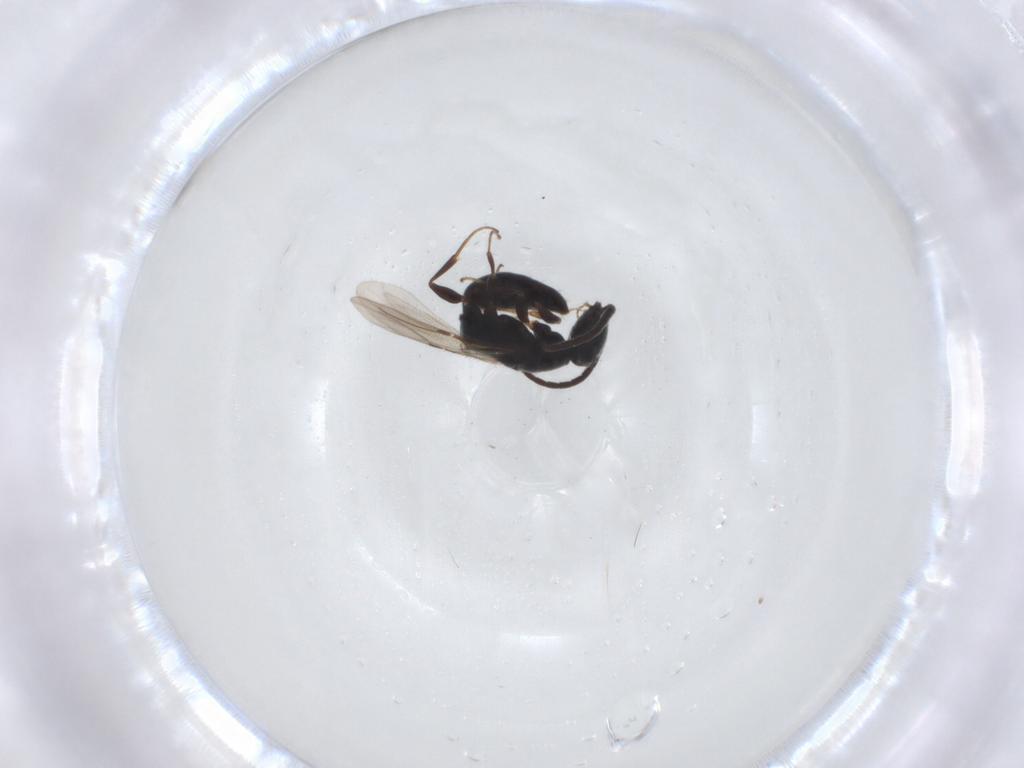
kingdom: Animalia
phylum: Arthropoda
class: Insecta
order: Hymenoptera
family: Bethylidae
